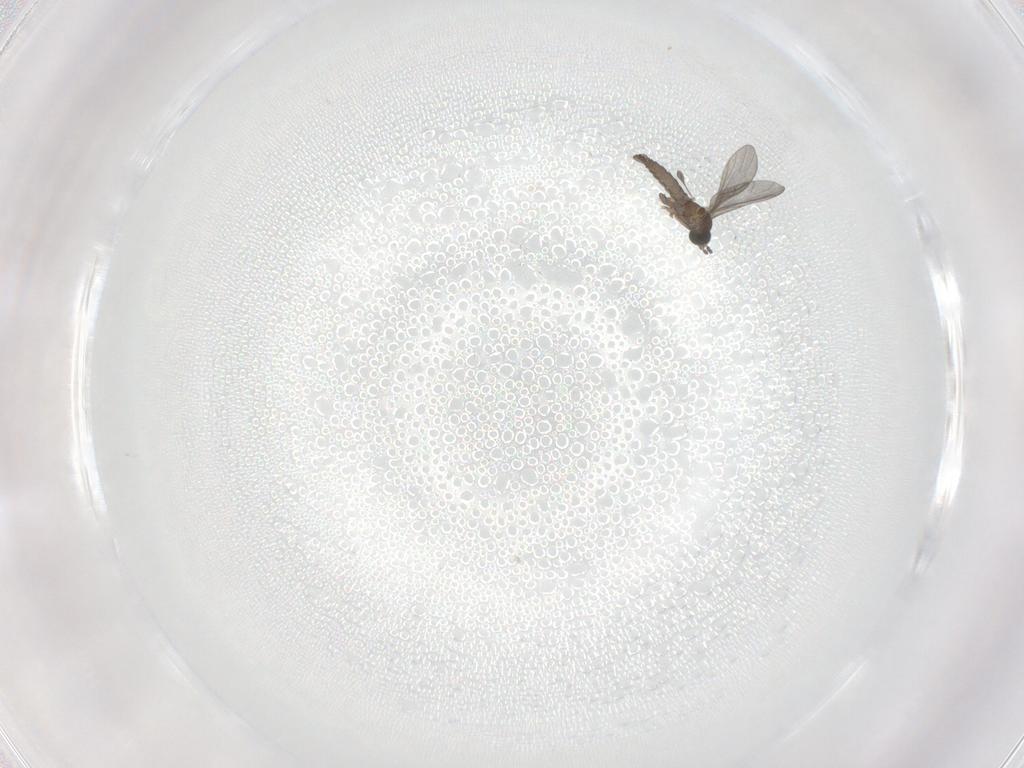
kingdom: Animalia
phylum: Arthropoda
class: Insecta
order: Diptera
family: Sciaridae
